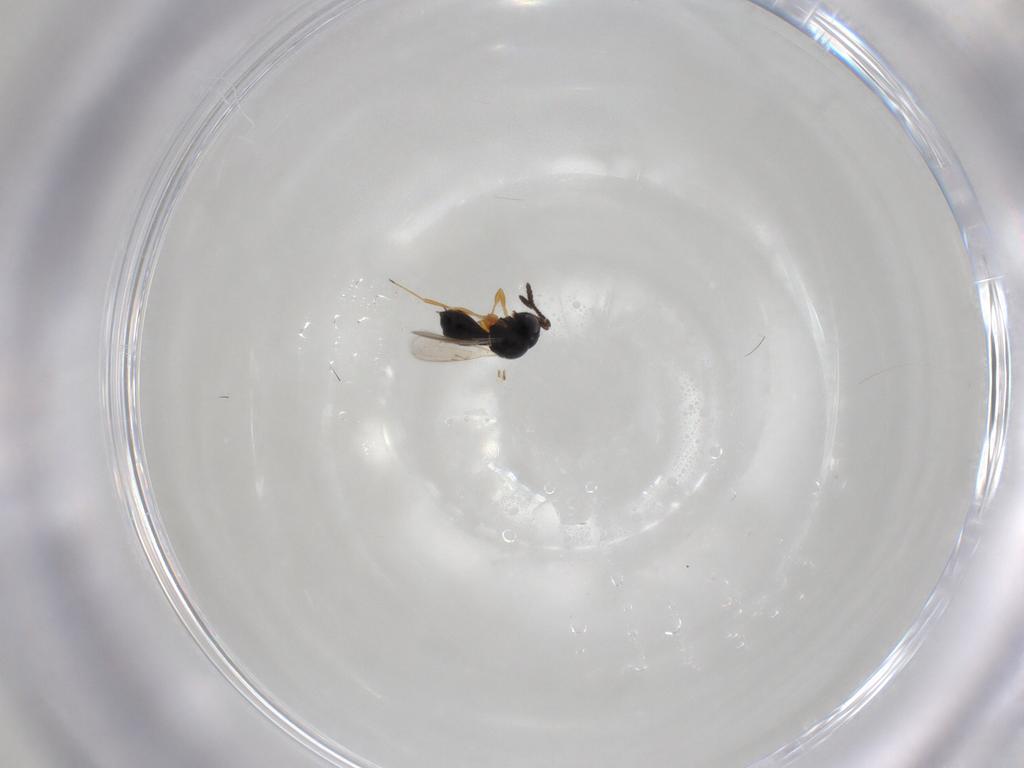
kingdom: Animalia
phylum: Arthropoda
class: Insecta
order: Hymenoptera
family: Scelionidae
